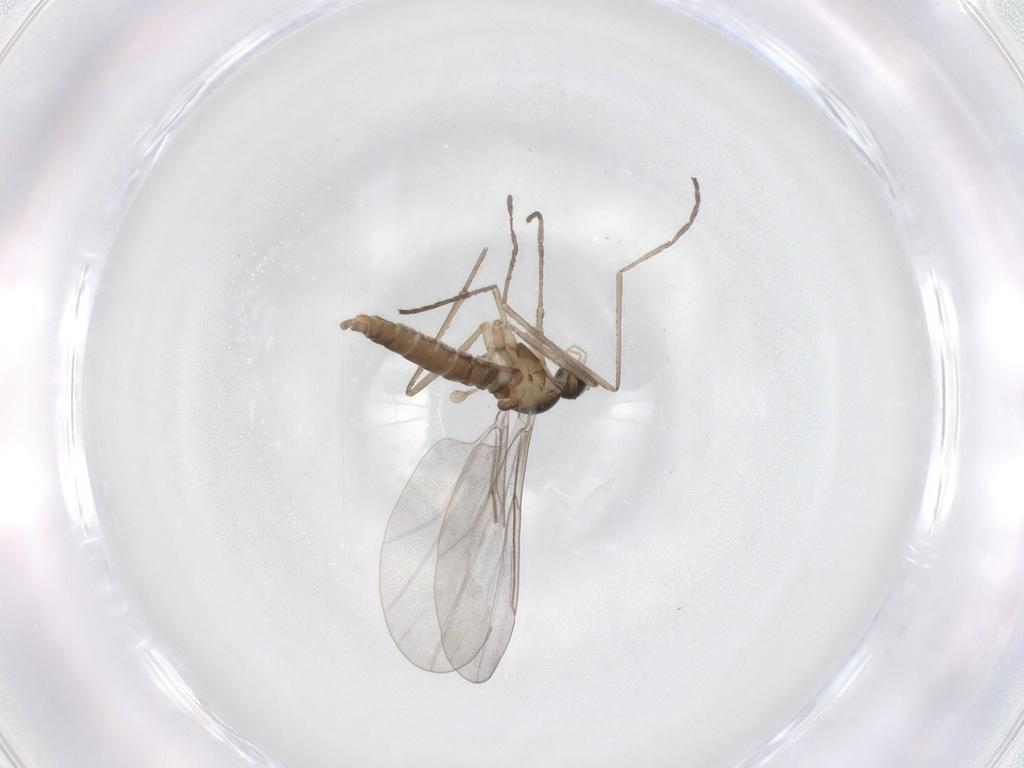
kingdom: Animalia
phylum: Arthropoda
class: Insecta
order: Diptera
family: Cecidomyiidae
